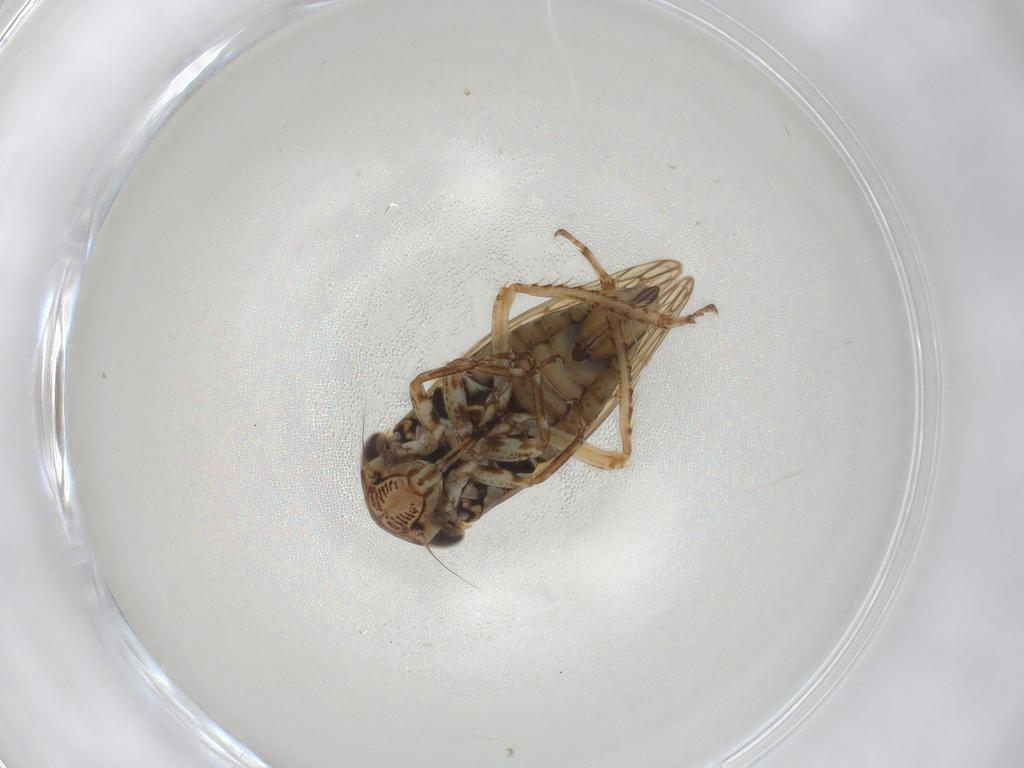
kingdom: Animalia
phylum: Arthropoda
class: Insecta
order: Hemiptera
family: Cicadellidae
